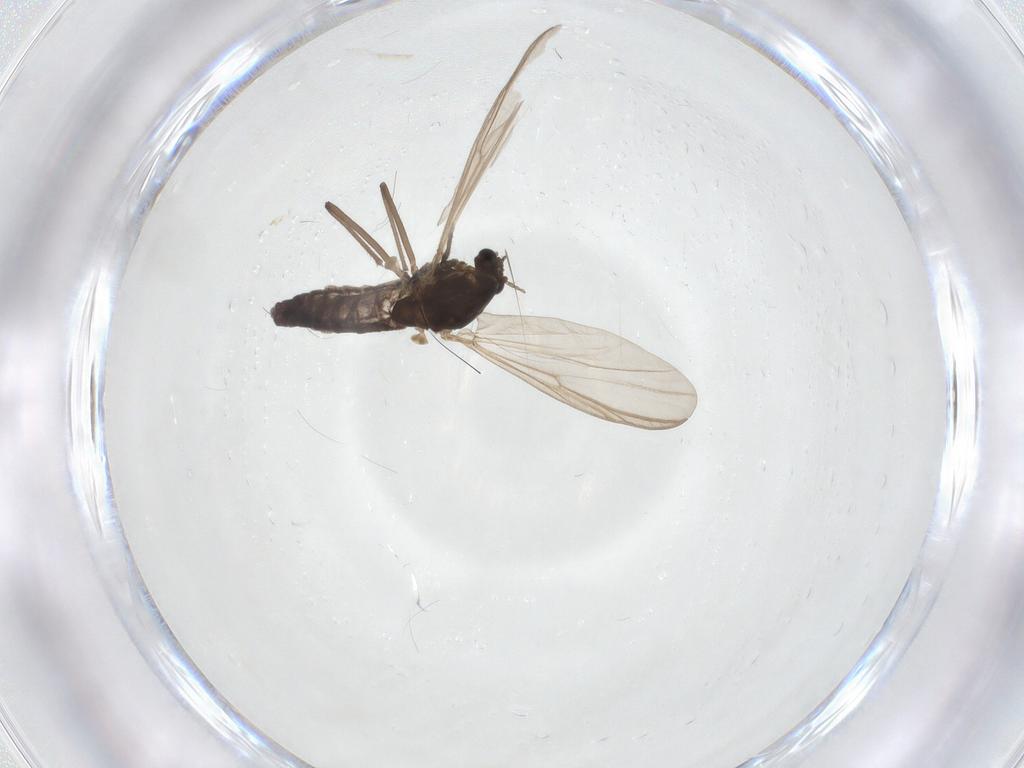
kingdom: Animalia
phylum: Arthropoda
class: Insecta
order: Diptera
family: Chironomidae
